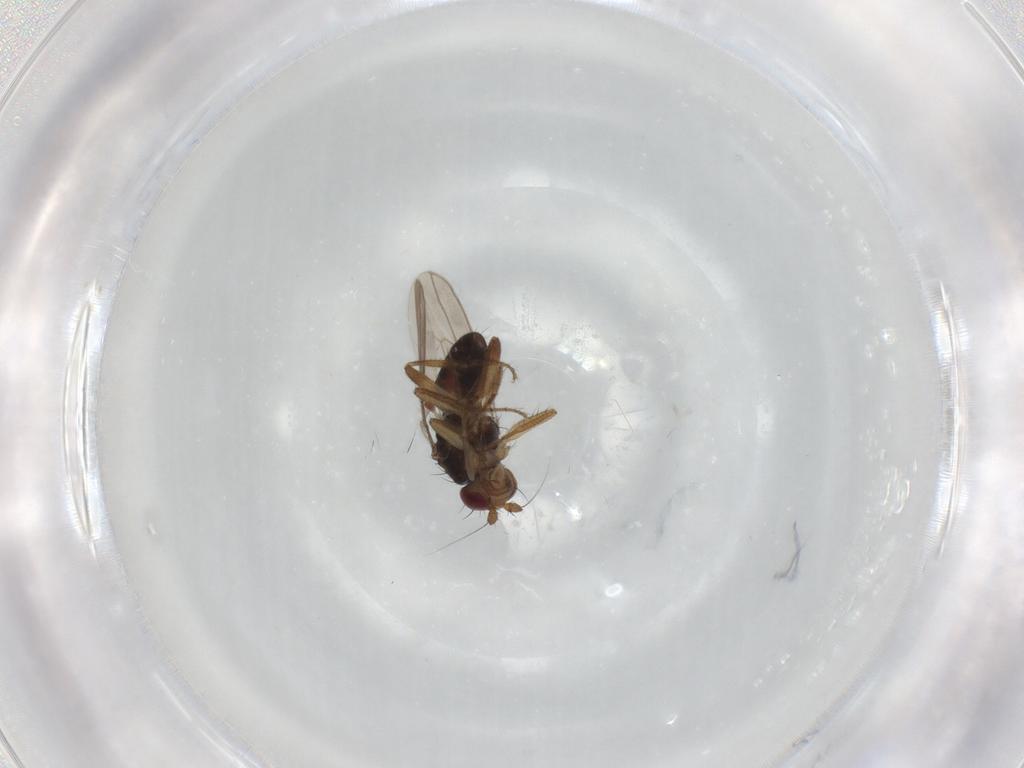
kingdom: Animalia
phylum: Arthropoda
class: Insecta
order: Diptera
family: Sphaeroceridae
